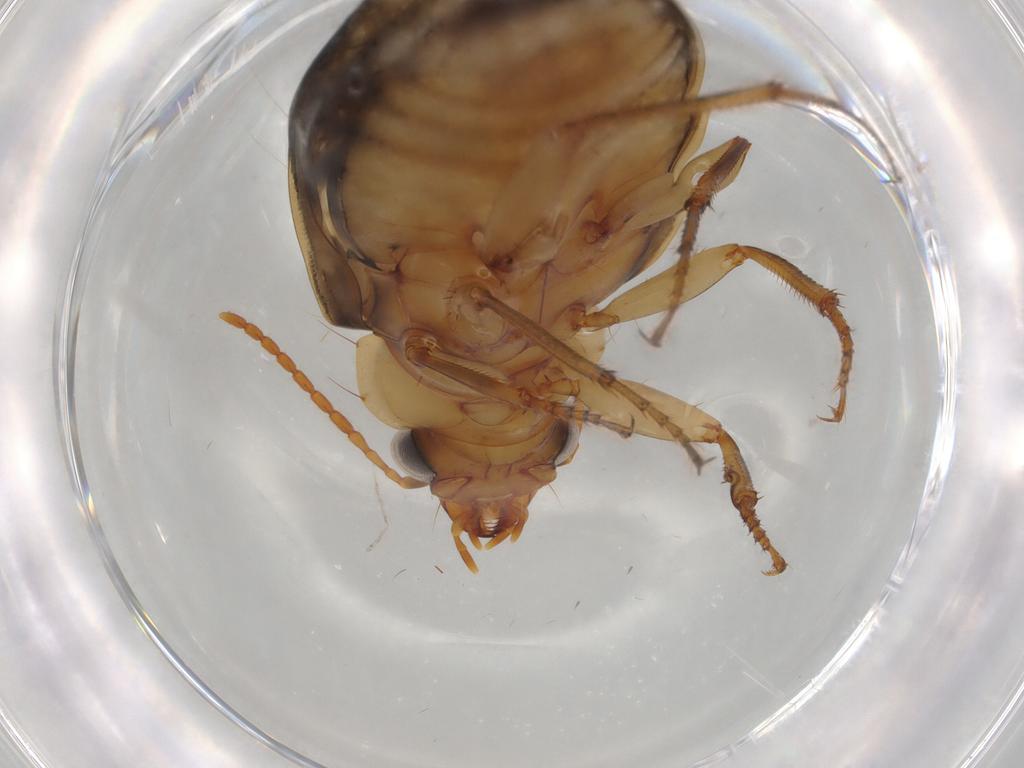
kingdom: Animalia
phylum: Arthropoda
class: Insecta
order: Coleoptera
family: Carabidae
